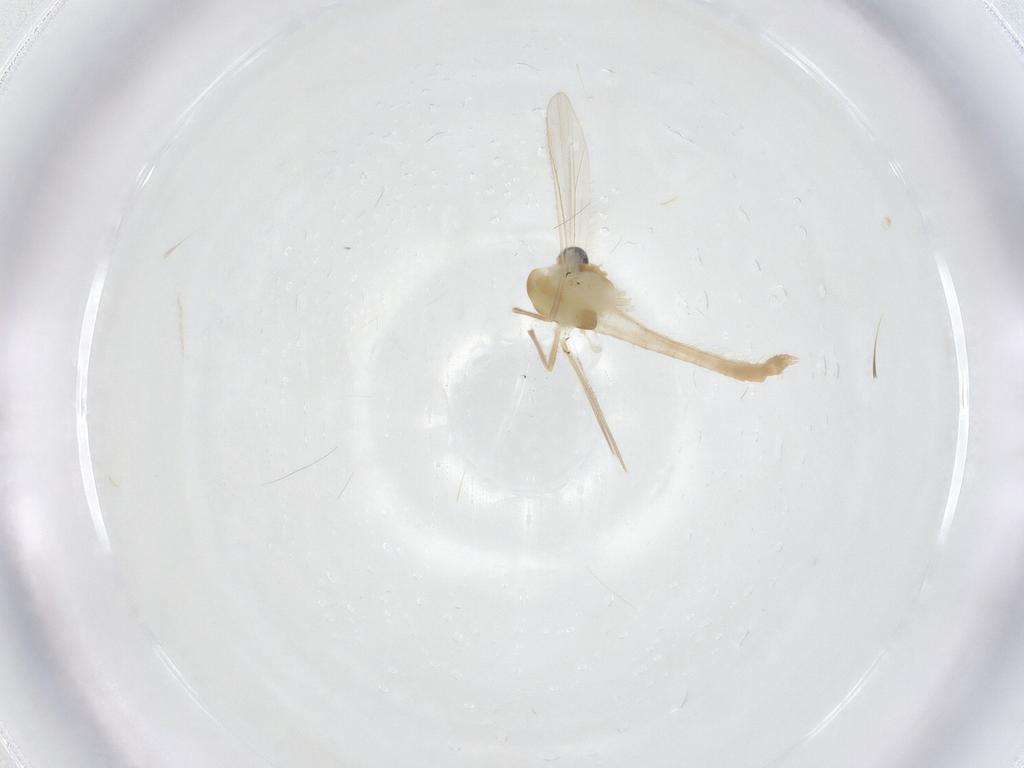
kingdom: Animalia
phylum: Arthropoda
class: Insecta
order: Diptera
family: Chironomidae
